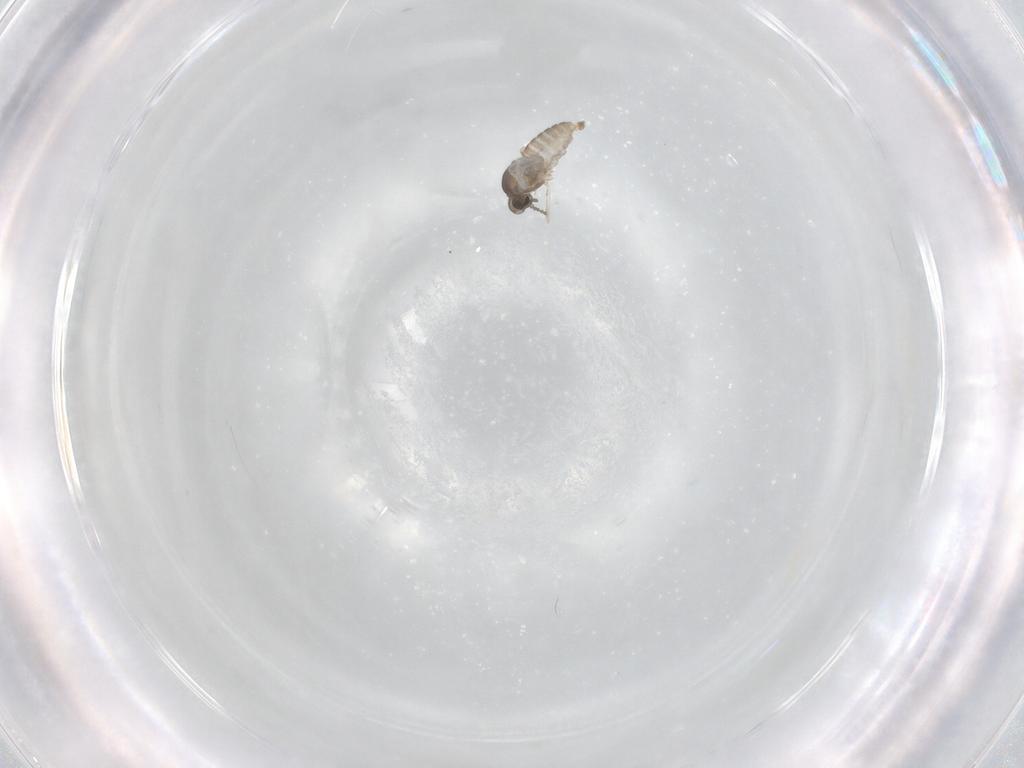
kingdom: Animalia
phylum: Arthropoda
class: Insecta
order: Diptera
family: Cecidomyiidae
